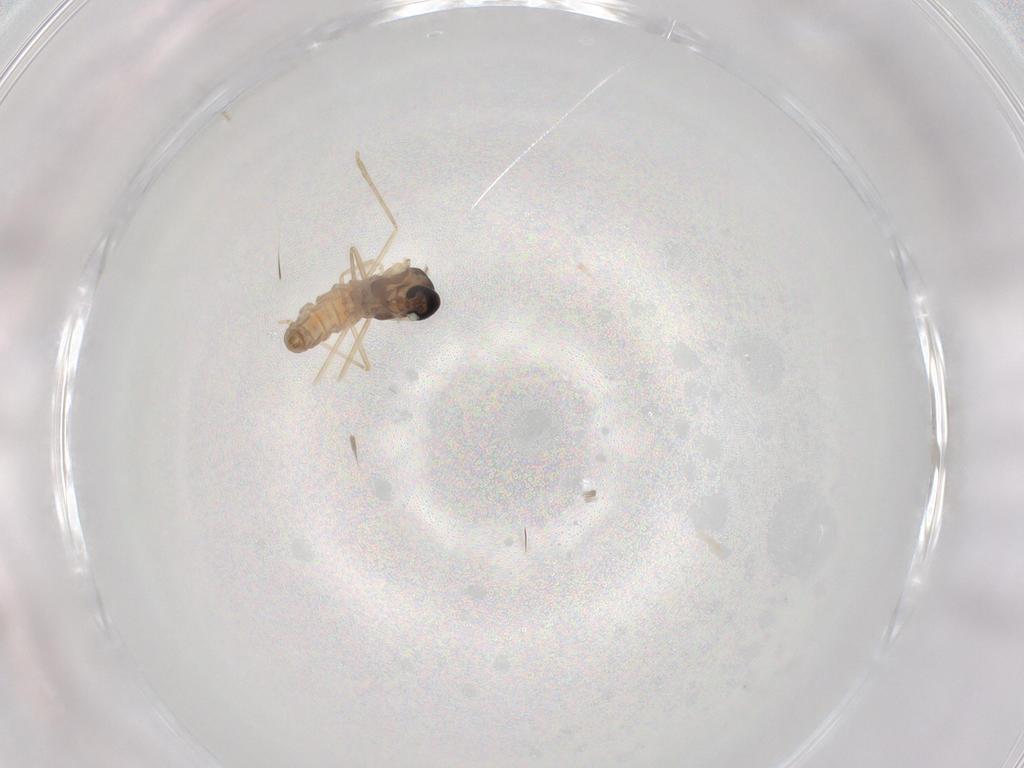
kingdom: Animalia
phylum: Arthropoda
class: Insecta
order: Diptera
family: Cecidomyiidae
